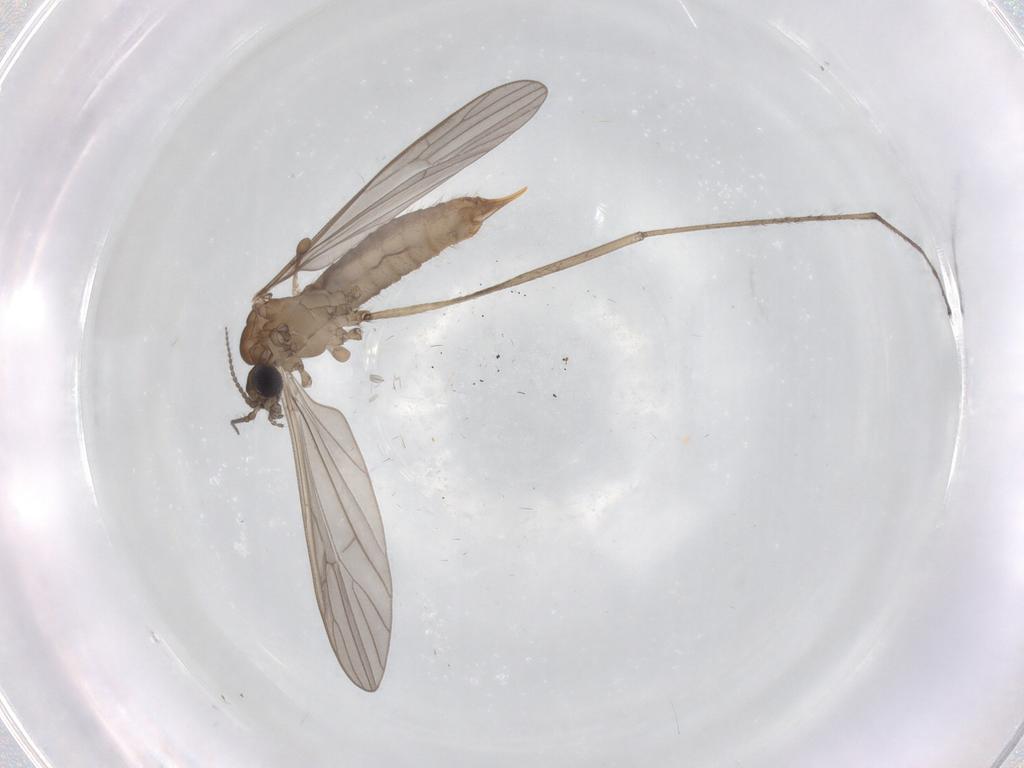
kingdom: Animalia
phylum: Arthropoda
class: Insecta
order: Diptera
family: Limoniidae
